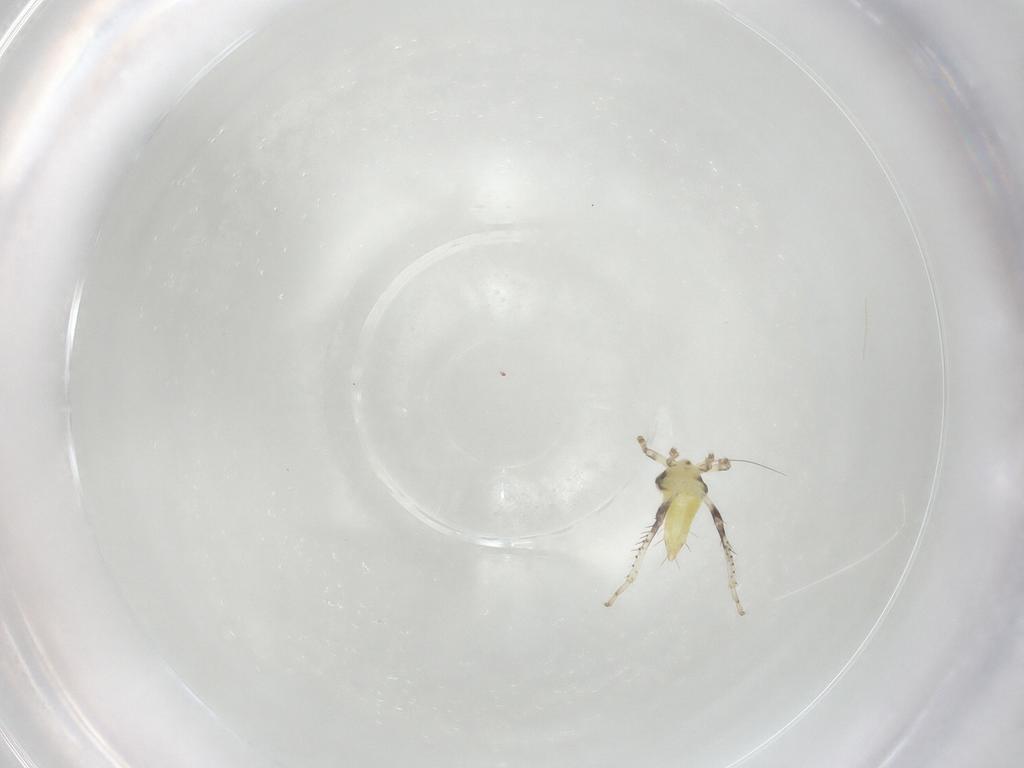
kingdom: Animalia
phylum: Arthropoda
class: Insecta
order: Hemiptera
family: Cicadellidae
